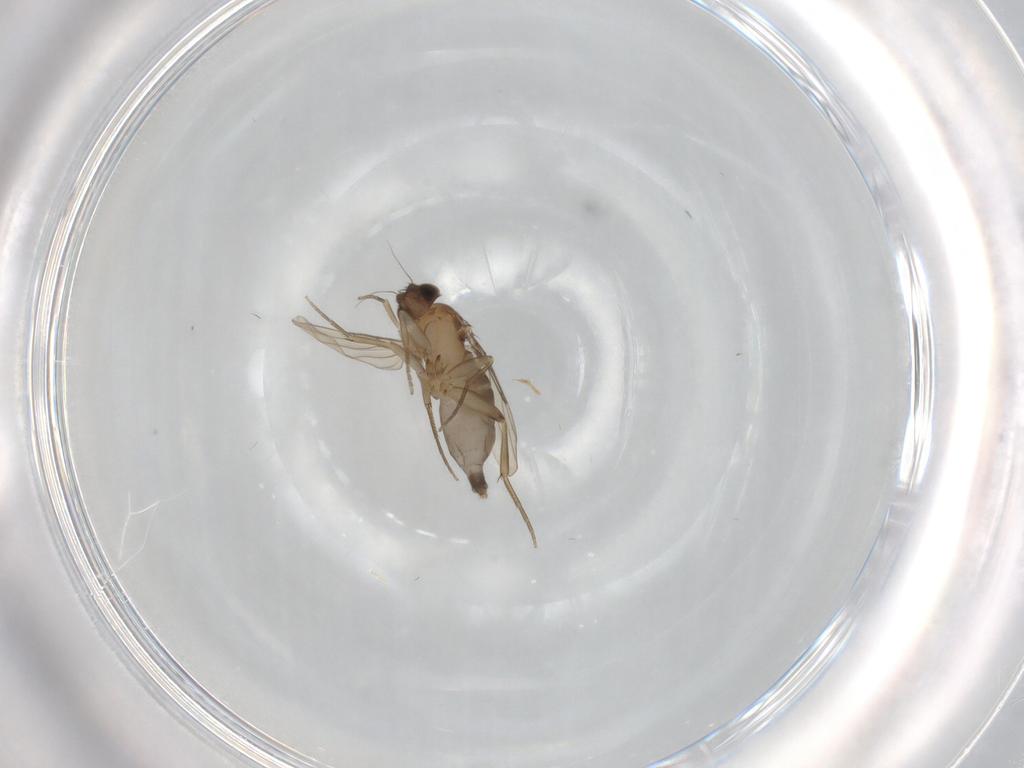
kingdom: Animalia
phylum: Arthropoda
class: Insecta
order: Diptera
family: Phoridae
